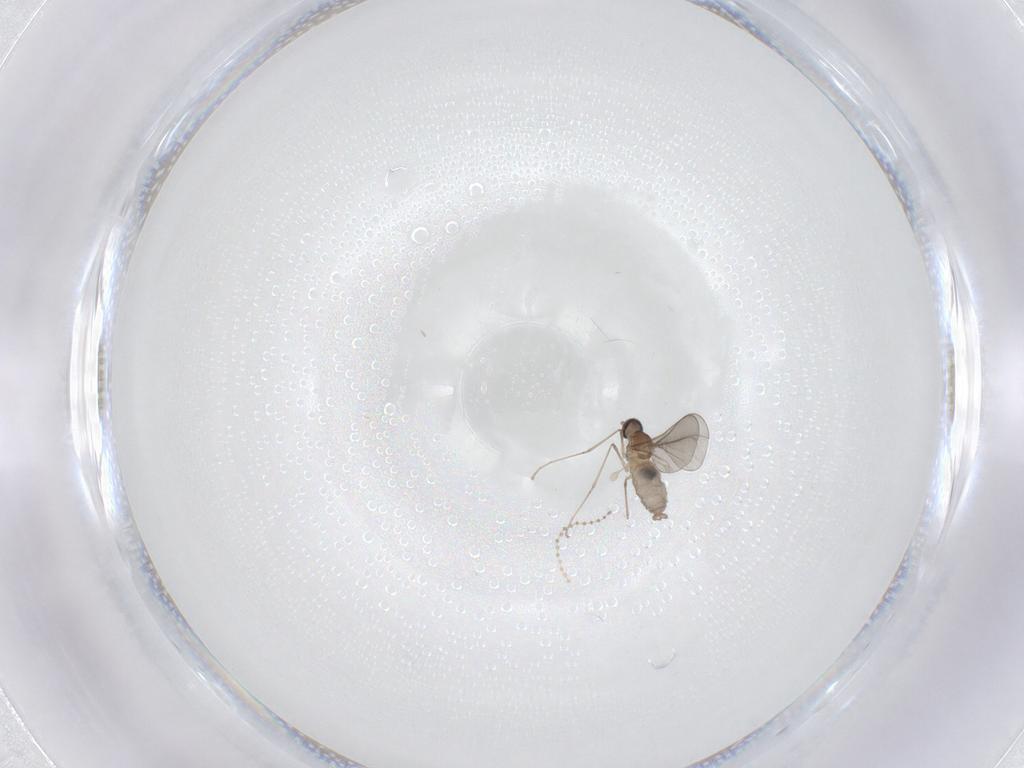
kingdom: Animalia
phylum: Arthropoda
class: Insecta
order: Diptera
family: Cecidomyiidae
